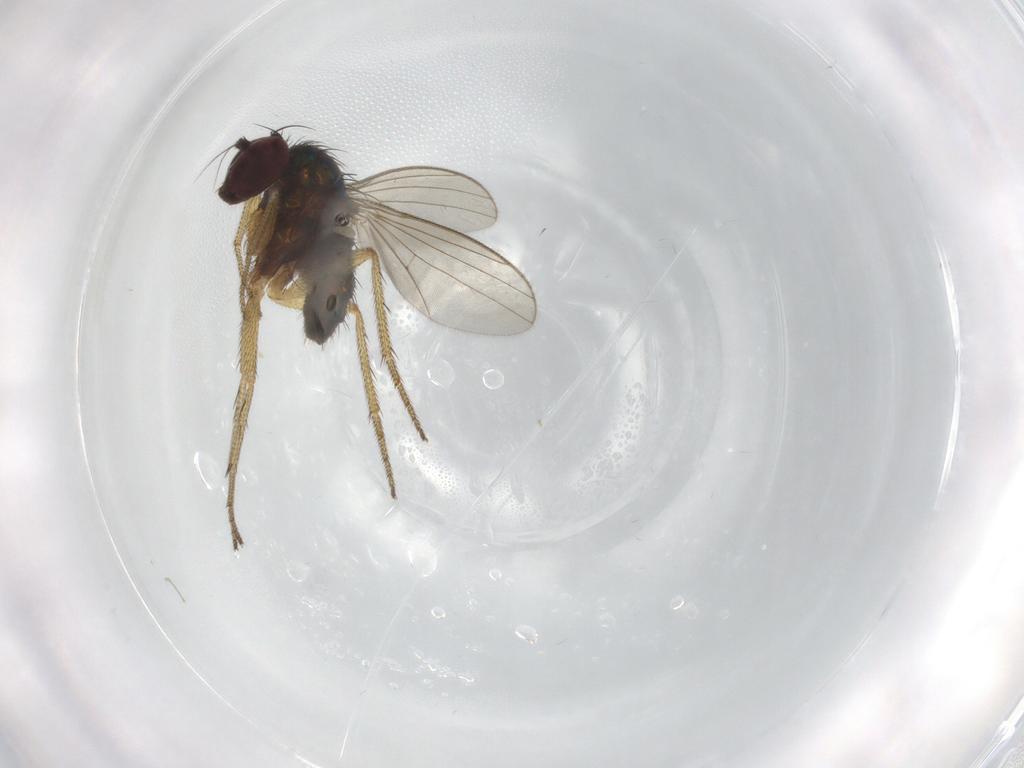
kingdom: Animalia
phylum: Arthropoda
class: Insecta
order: Diptera
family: Dolichopodidae
